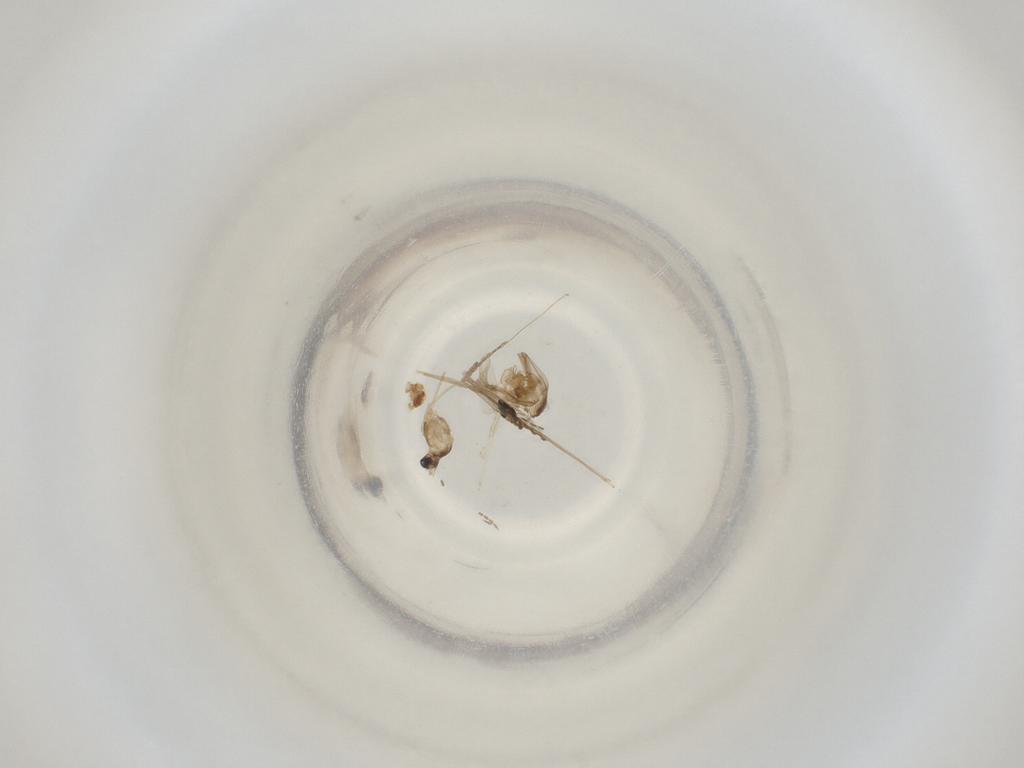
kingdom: Animalia
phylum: Arthropoda
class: Insecta
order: Diptera
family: Cecidomyiidae
